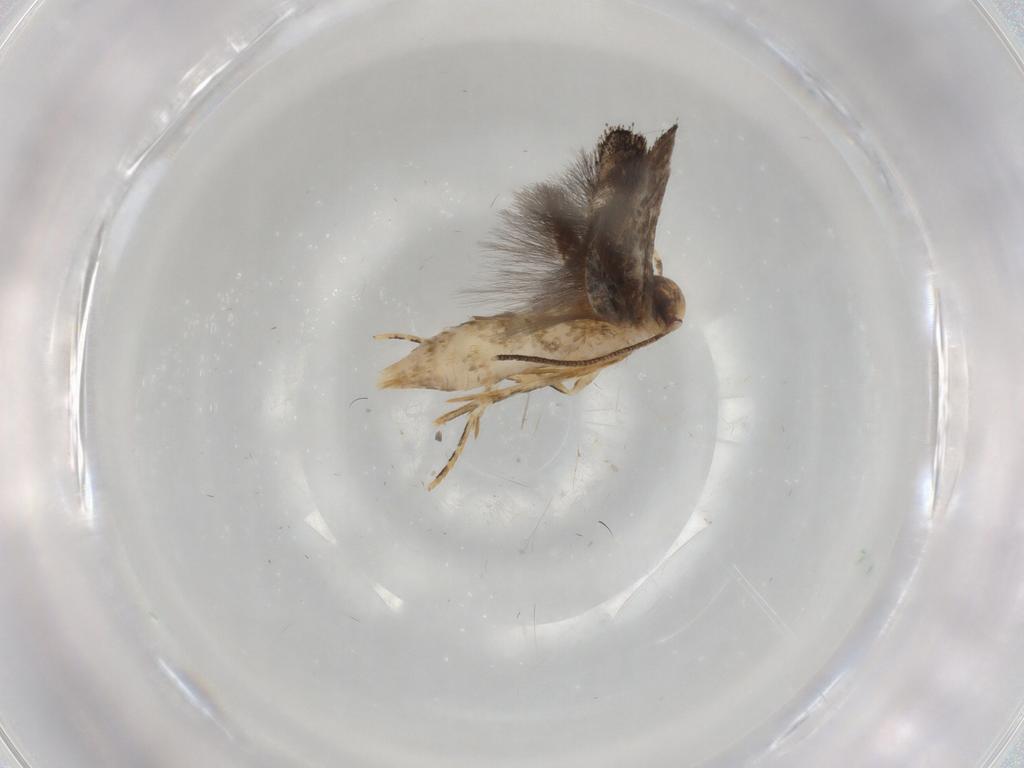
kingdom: Animalia
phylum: Arthropoda
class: Insecta
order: Lepidoptera
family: Momphidae
